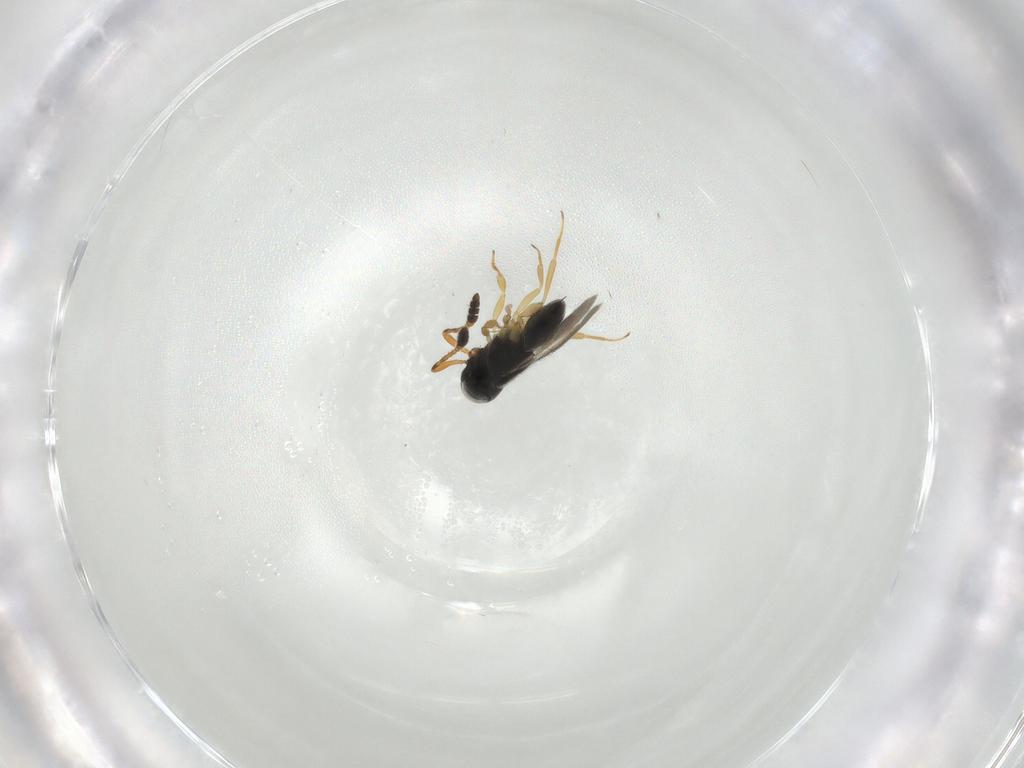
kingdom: Animalia
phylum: Arthropoda
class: Insecta
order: Hymenoptera
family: Scelionidae
